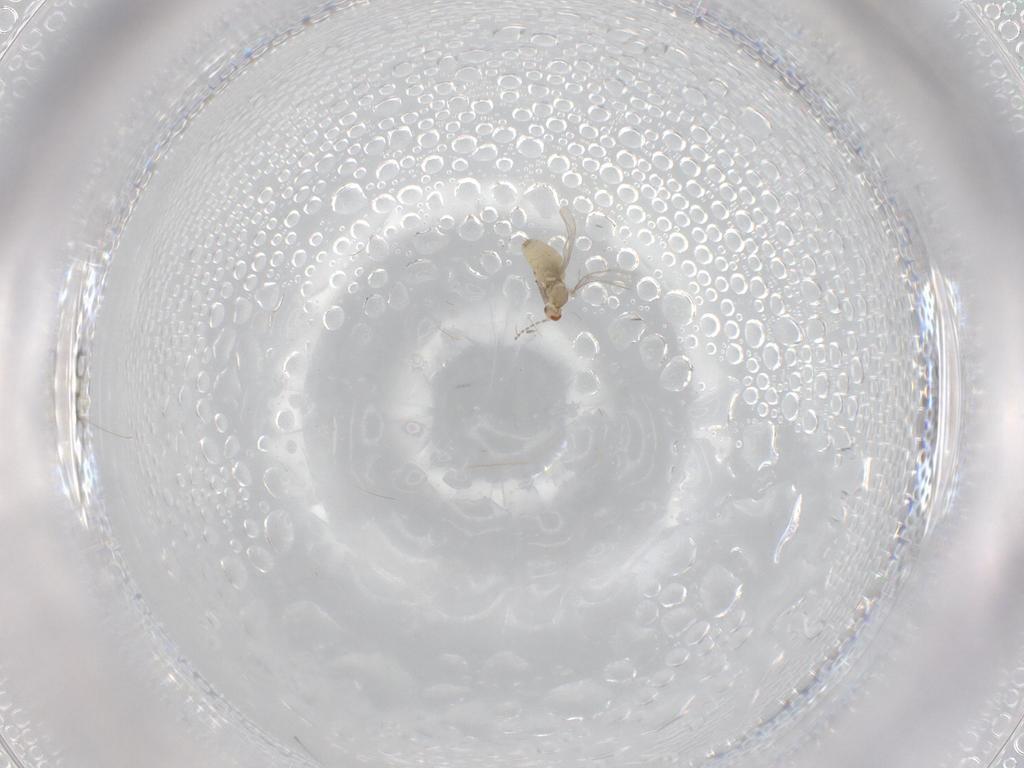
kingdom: Animalia
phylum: Arthropoda
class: Insecta
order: Diptera
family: Cecidomyiidae
